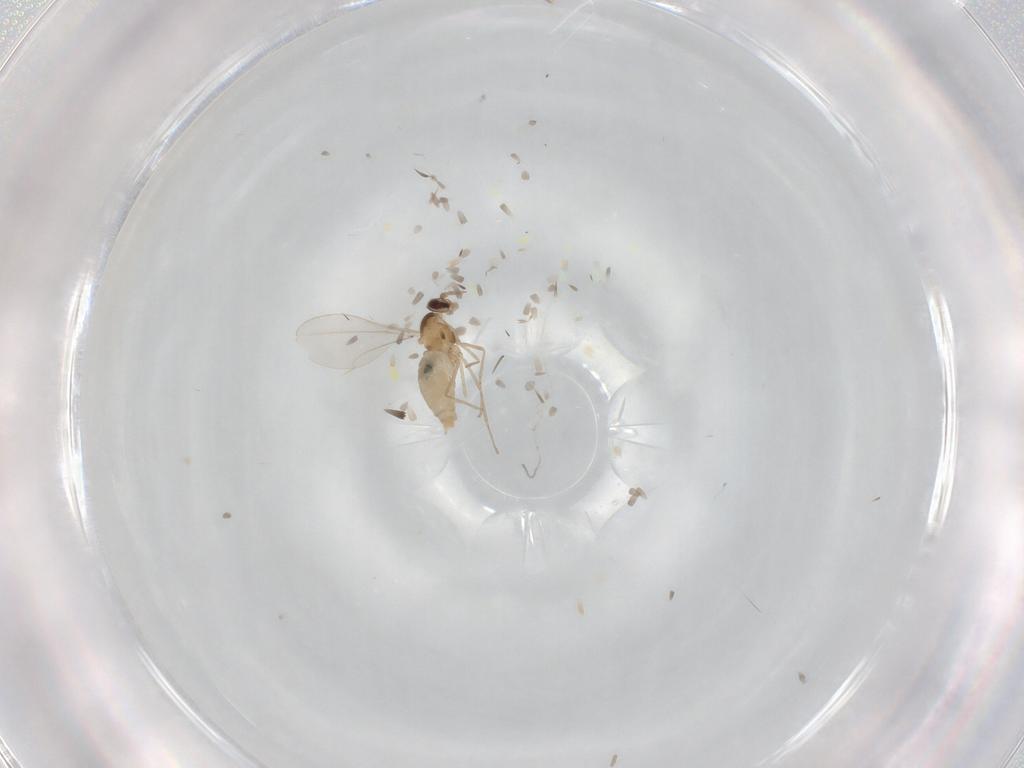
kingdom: Animalia
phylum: Arthropoda
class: Insecta
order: Diptera
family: Cecidomyiidae
